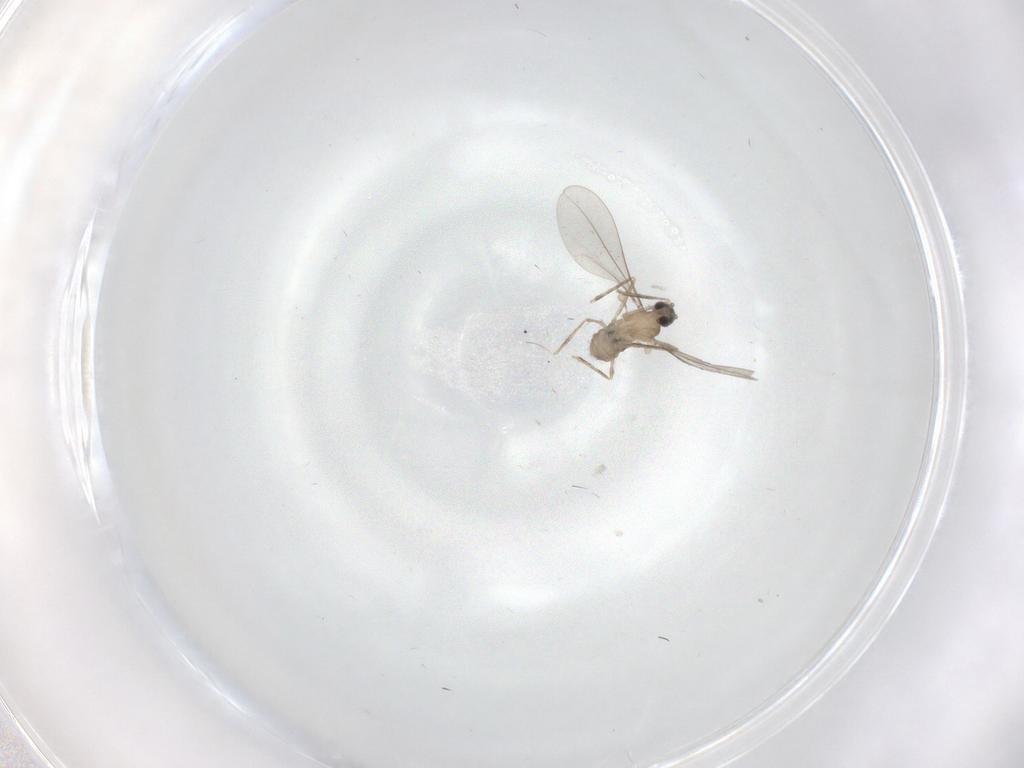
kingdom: Animalia
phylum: Arthropoda
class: Insecta
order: Diptera
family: Cecidomyiidae
